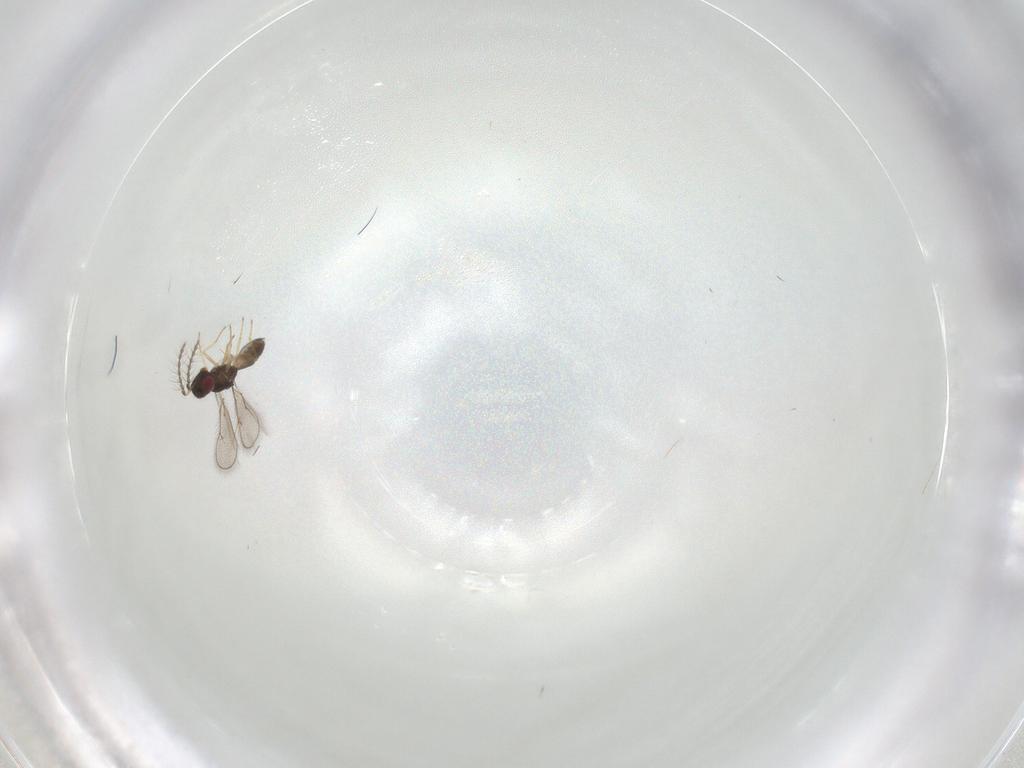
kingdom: Animalia
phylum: Arthropoda
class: Insecta
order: Hymenoptera
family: Eulophidae
